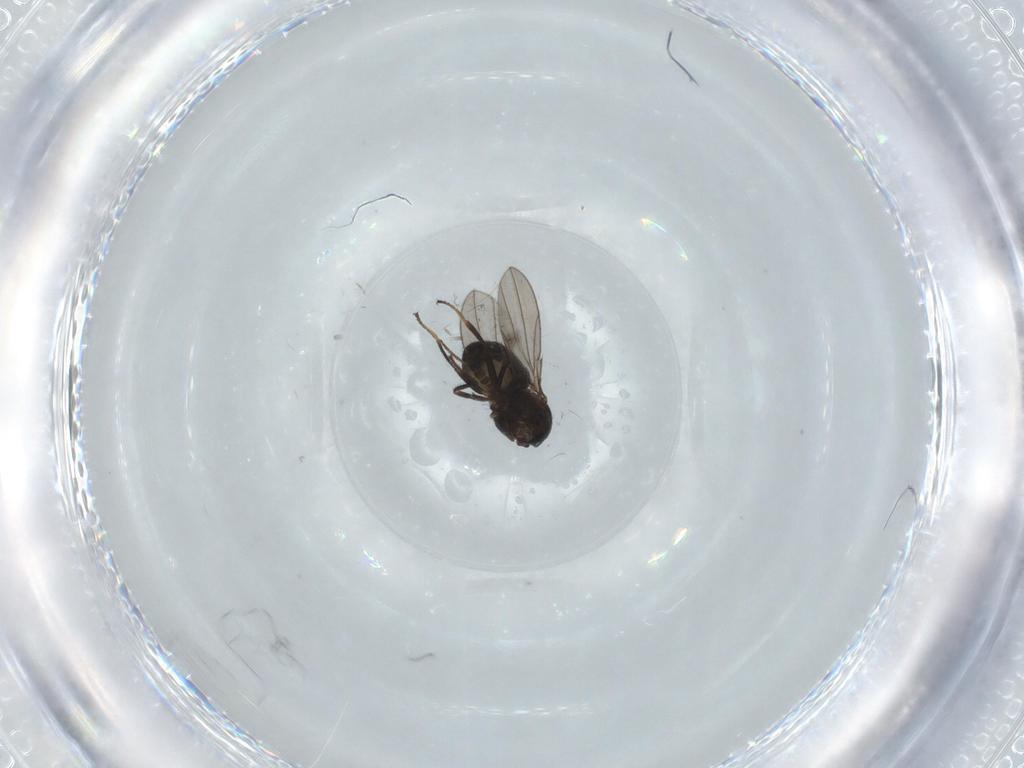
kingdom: Animalia
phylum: Arthropoda
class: Insecta
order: Diptera
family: Ephydridae
